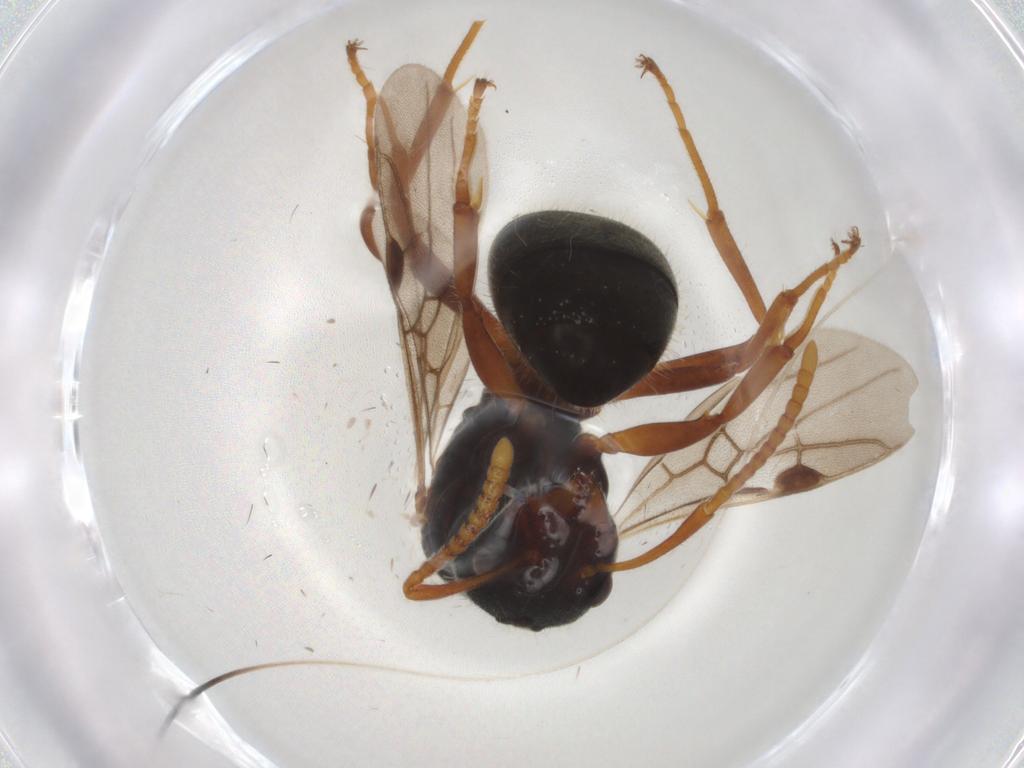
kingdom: Animalia
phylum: Arthropoda
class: Insecta
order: Hymenoptera
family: Formicidae
